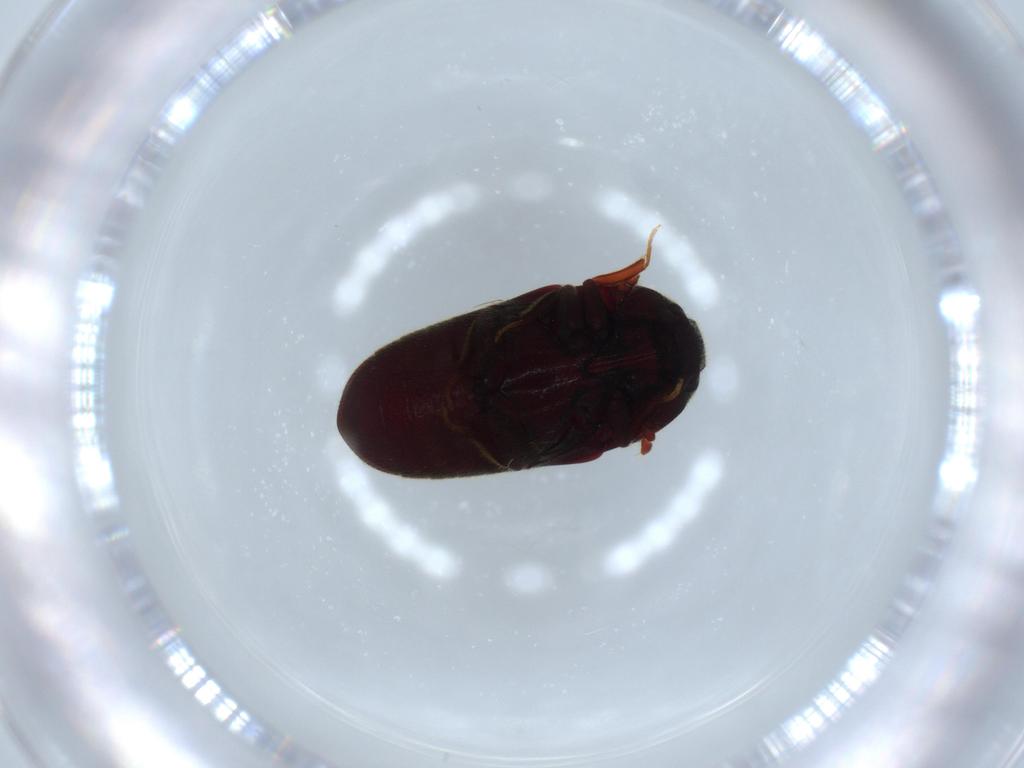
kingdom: Animalia
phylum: Arthropoda
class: Insecta
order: Coleoptera
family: Throscidae
